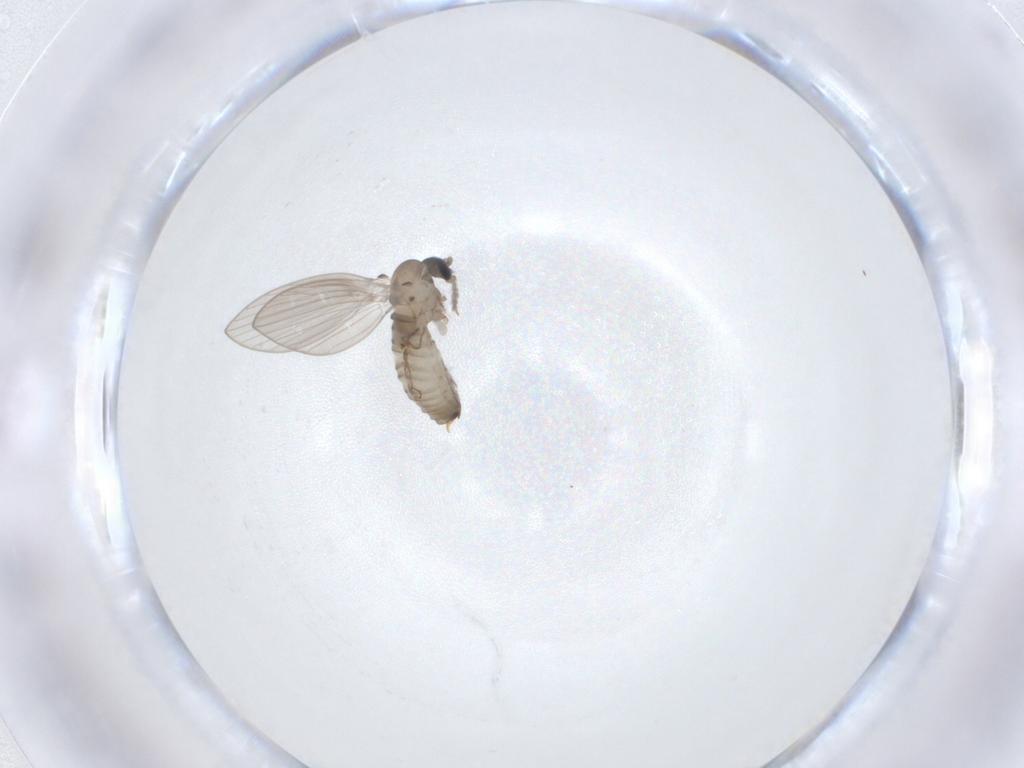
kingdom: Animalia
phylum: Arthropoda
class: Insecta
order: Diptera
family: Psychodidae
